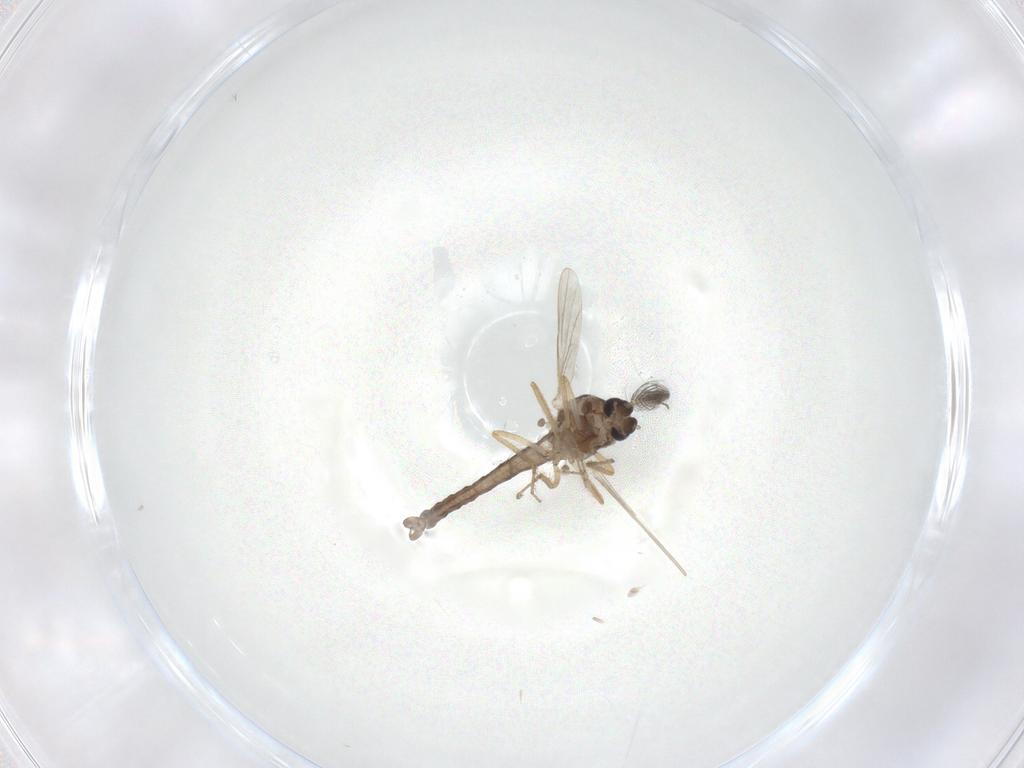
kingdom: Animalia
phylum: Arthropoda
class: Insecta
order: Diptera
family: Ceratopogonidae
